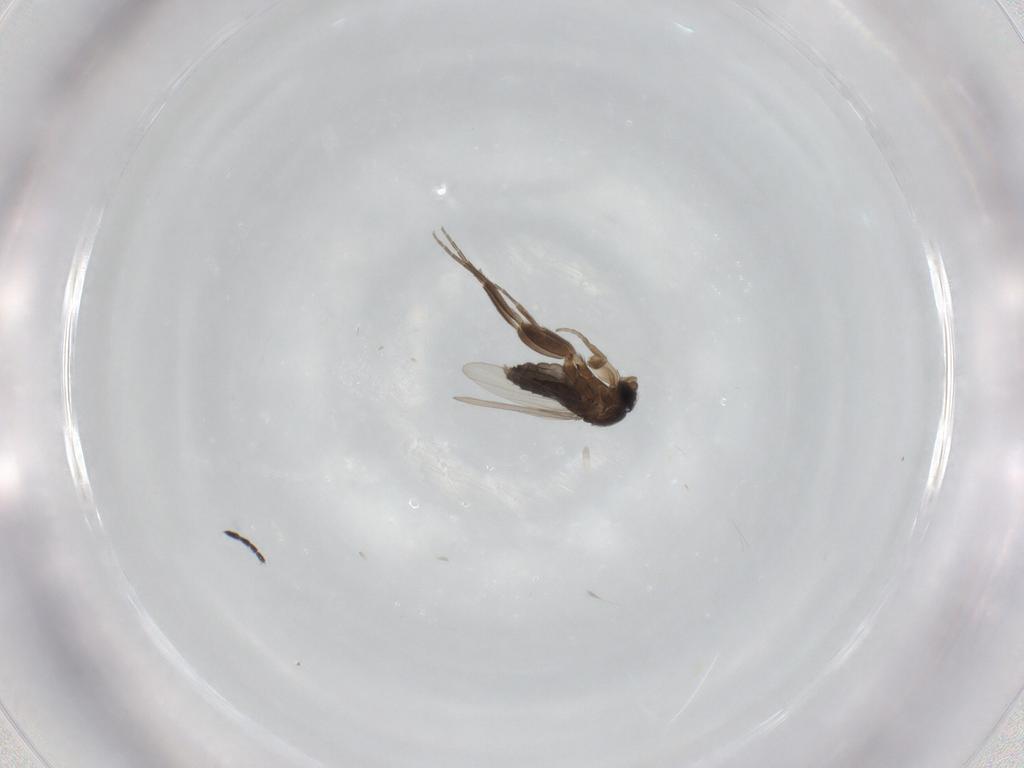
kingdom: Animalia
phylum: Arthropoda
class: Insecta
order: Diptera
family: Phoridae
